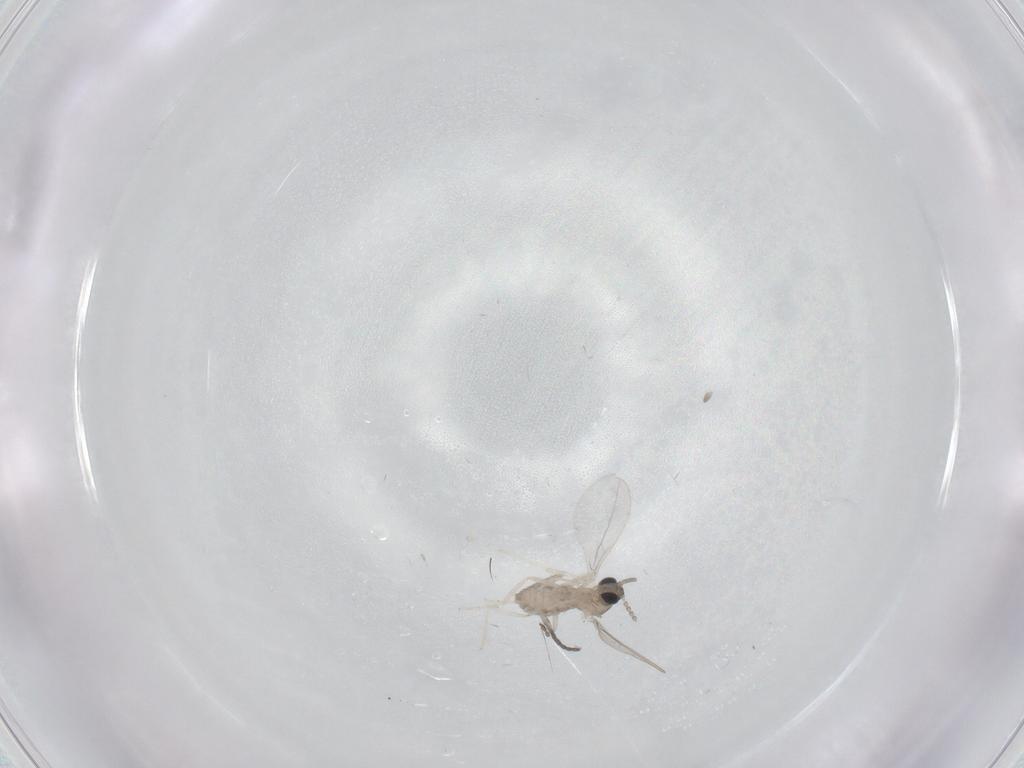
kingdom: Animalia
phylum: Arthropoda
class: Insecta
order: Diptera
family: Cecidomyiidae
